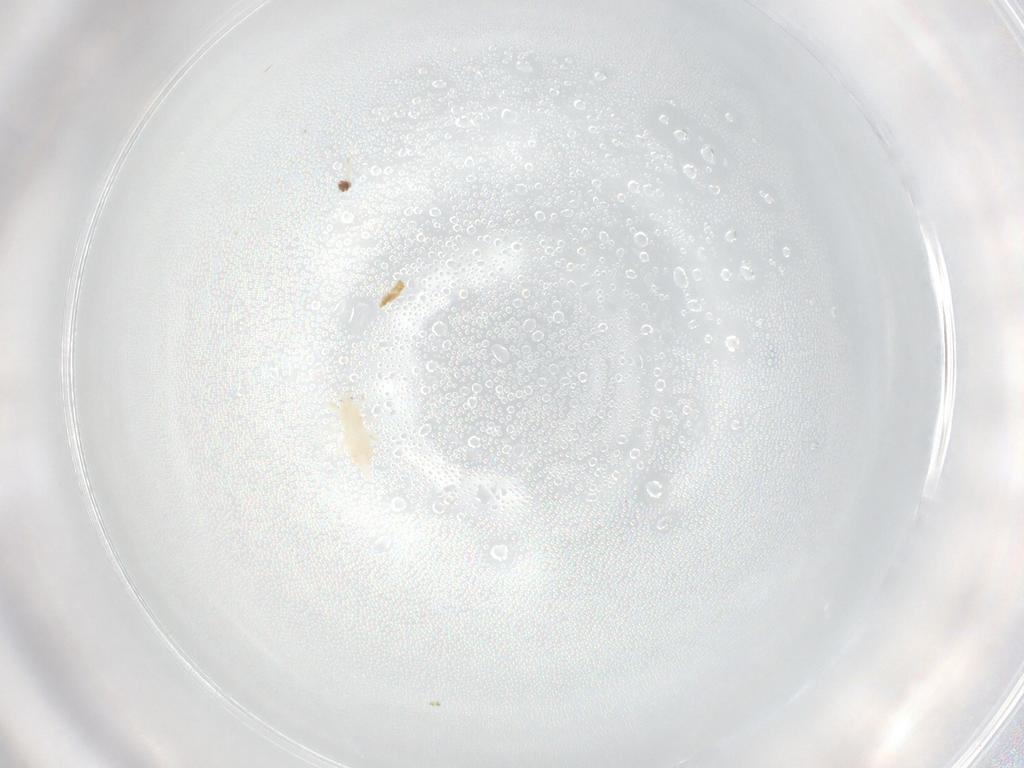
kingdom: Animalia
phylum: Arthropoda
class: Insecta
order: Thysanoptera
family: Aeolothripidae
